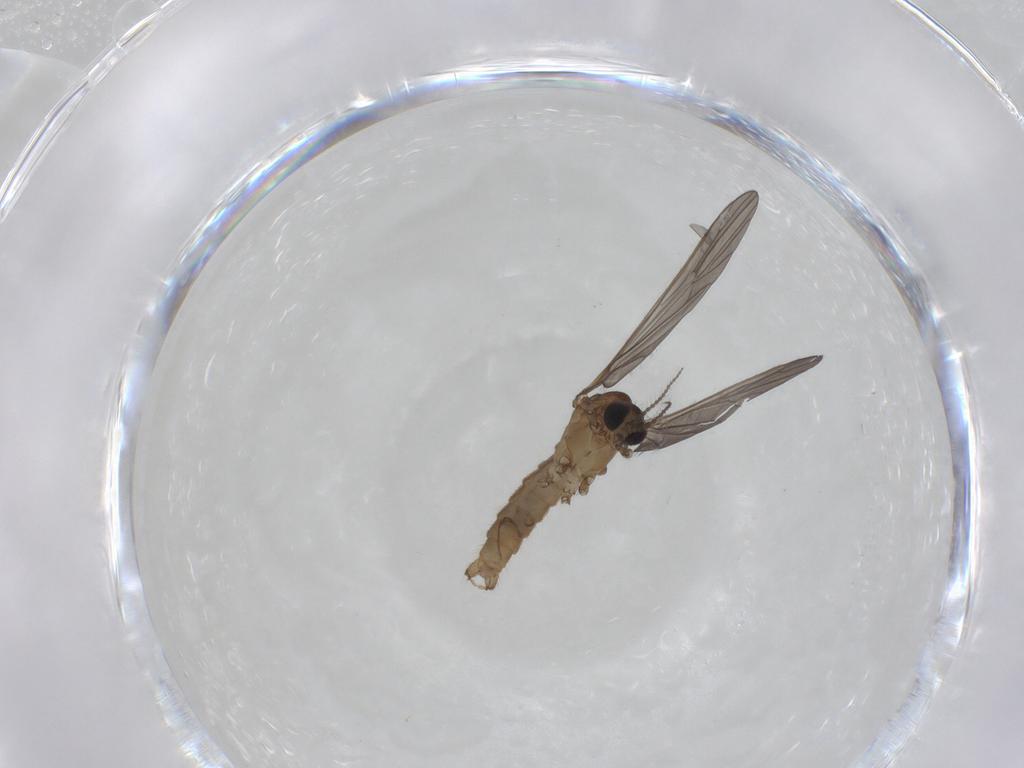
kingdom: Animalia
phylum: Arthropoda
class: Insecta
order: Diptera
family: Limoniidae
